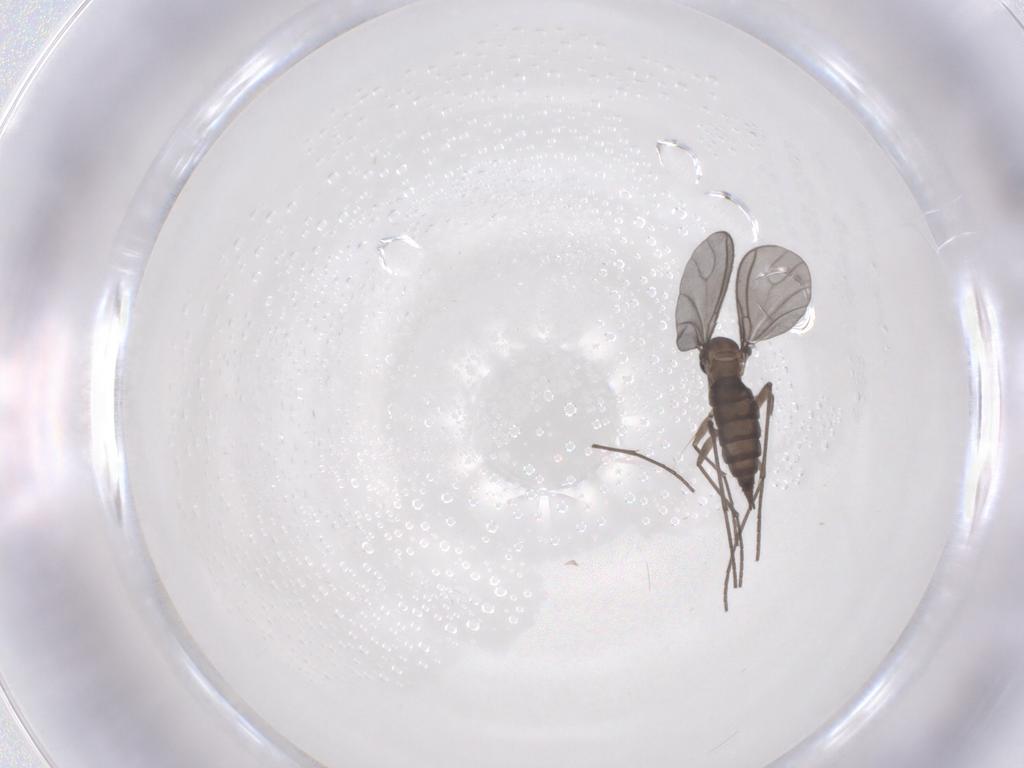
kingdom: Animalia
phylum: Arthropoda
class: Insecta
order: Diptera
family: Sciaridae
